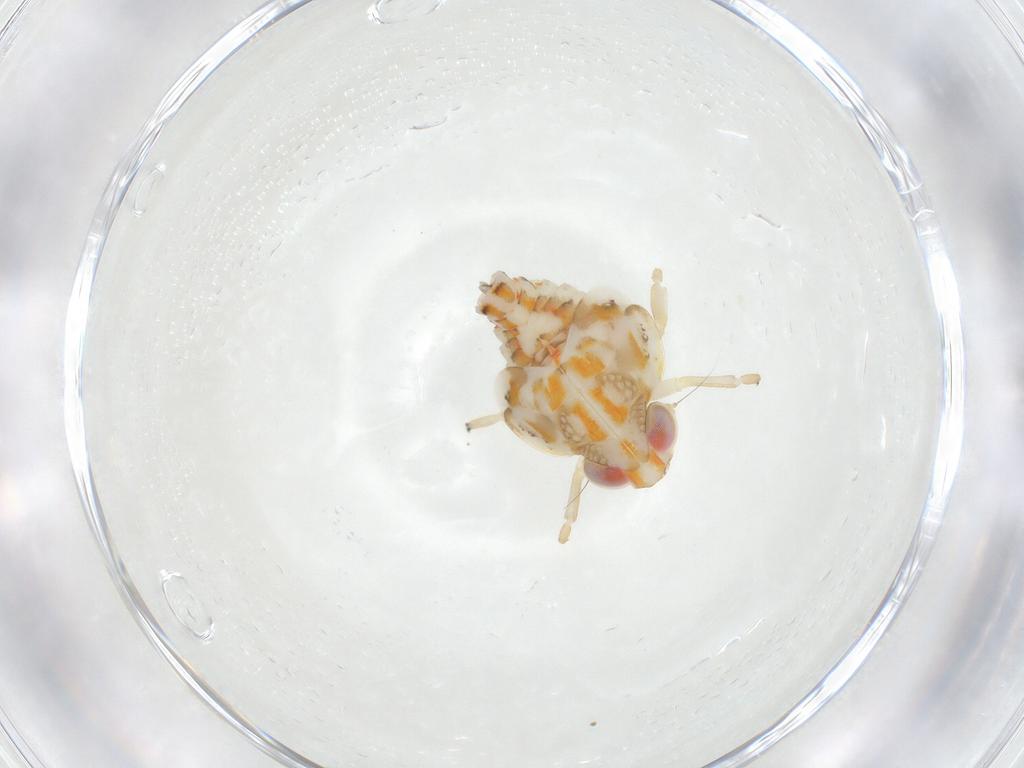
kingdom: Animalia
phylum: Arthropoda
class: Insecta
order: Hemiptera
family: Nogodinidae
